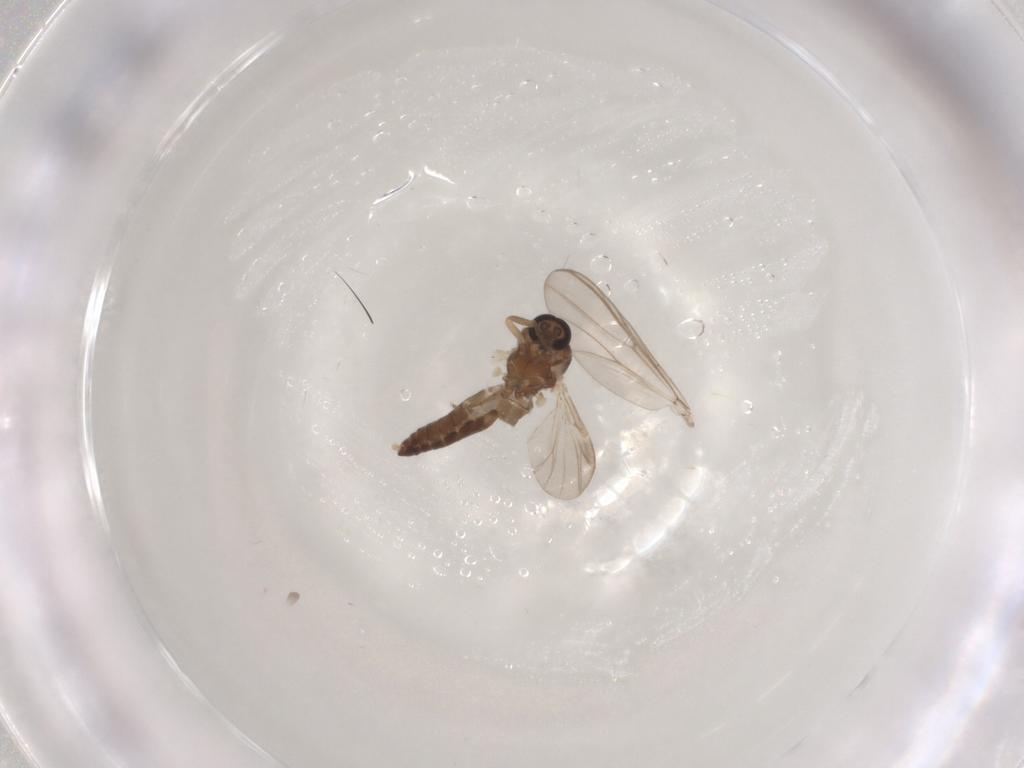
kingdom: Animalia
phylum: Arthropoda
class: Insecta
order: Diptera
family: Ceratopogonidae
